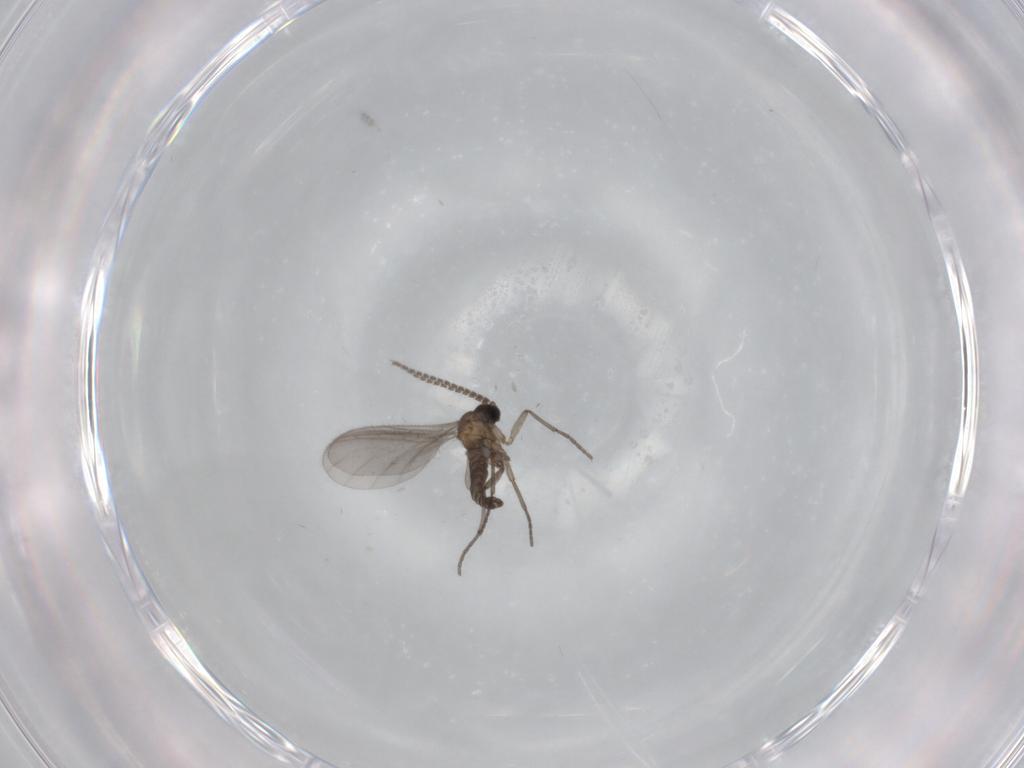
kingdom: Animalia
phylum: Arthropoda
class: Insecta
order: Diptera
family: Sciaridae
